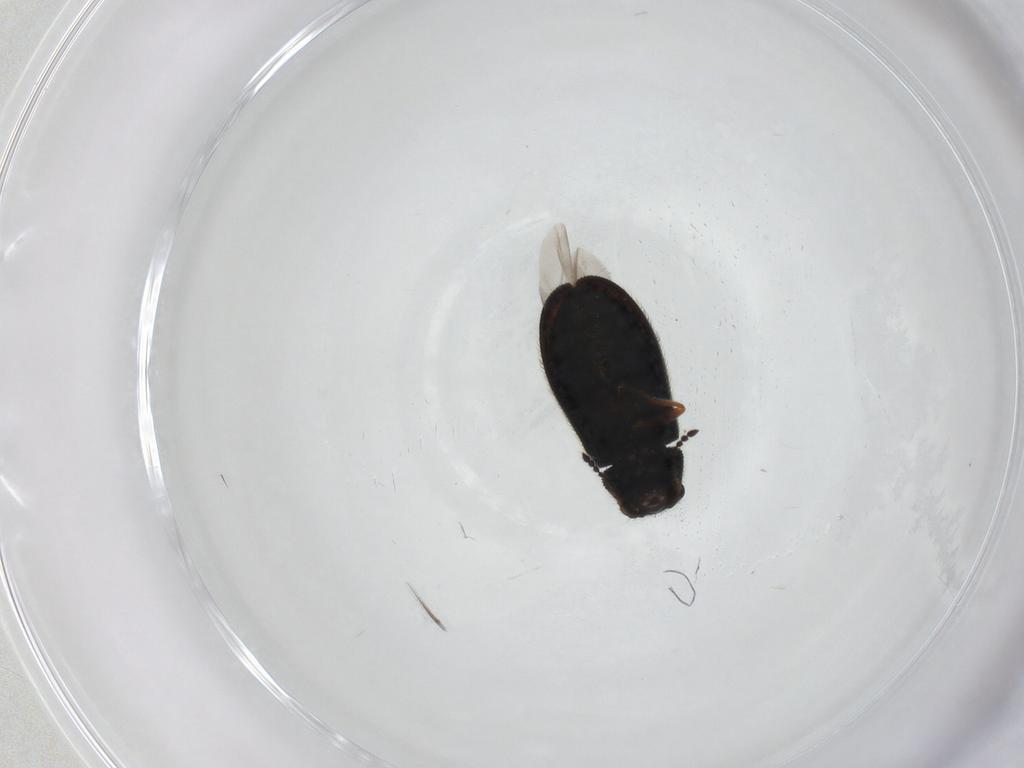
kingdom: Animalia
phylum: Arthropoda
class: Insecta
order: Coleoptera
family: Melyridae
